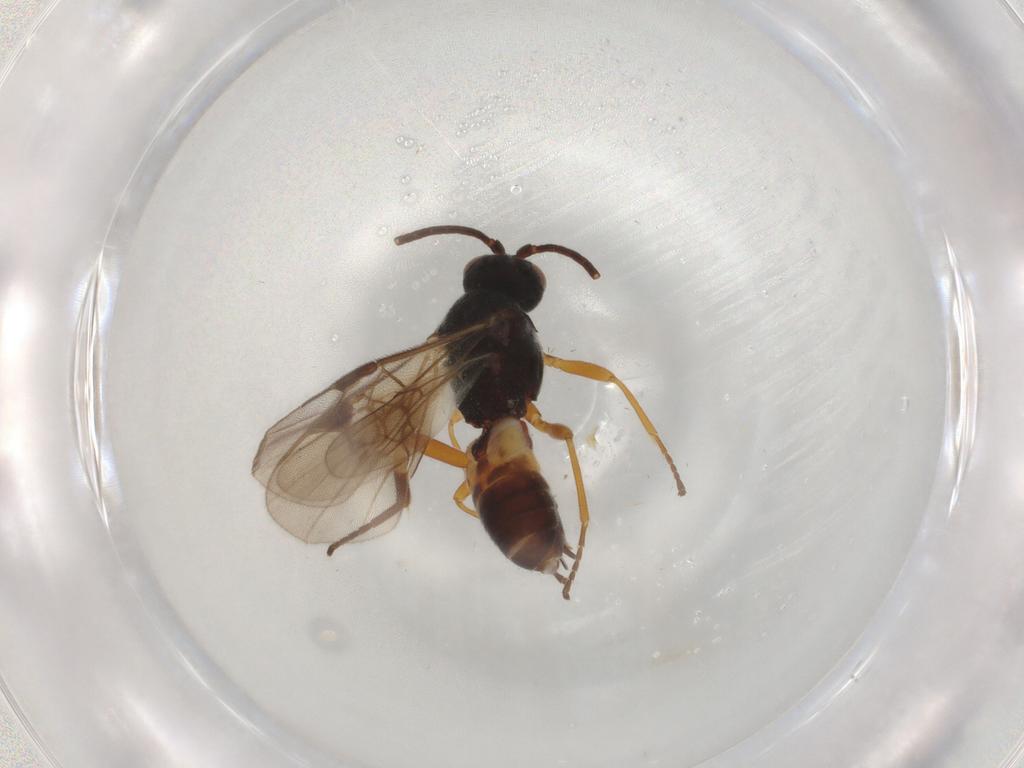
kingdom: Animalia
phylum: Arthropoda
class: Insecta
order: Hymenoptera
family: Braconidae
